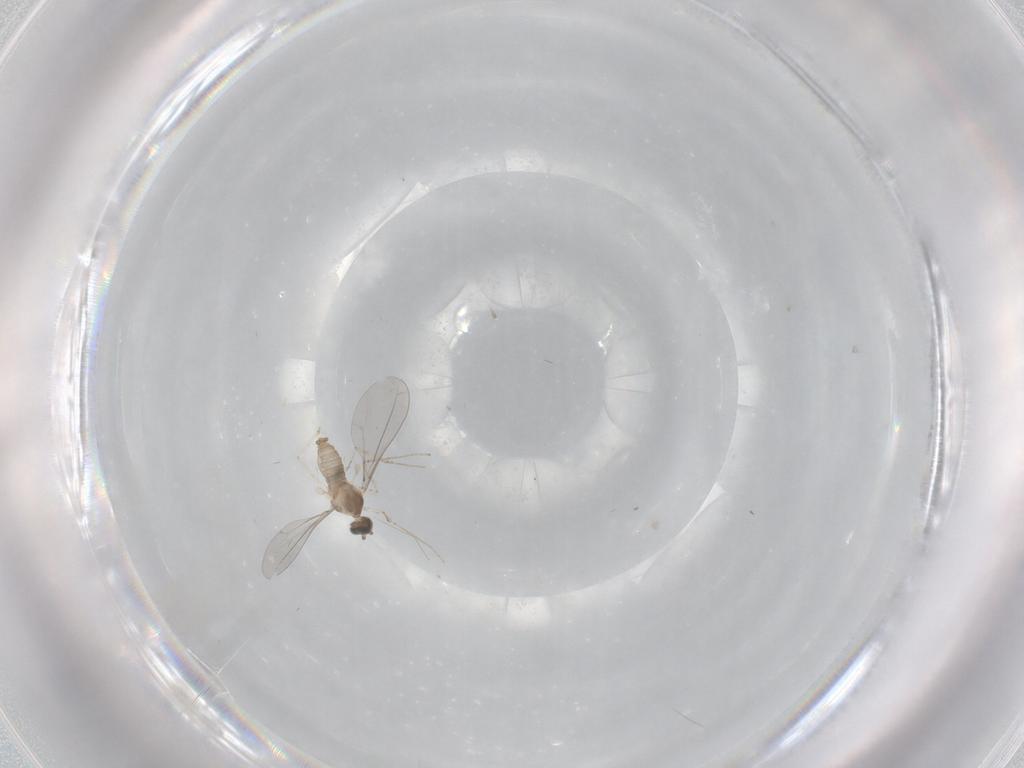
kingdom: Animalia
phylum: Arthropoda
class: Insecta
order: Diptera
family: Cecidomyiidae
